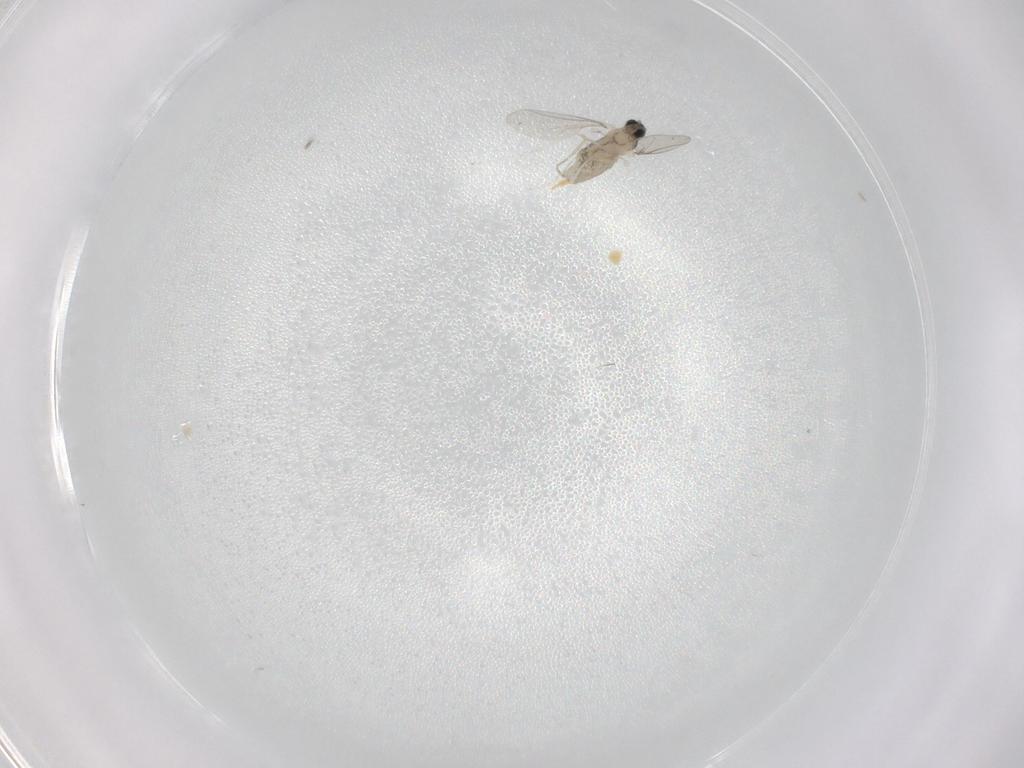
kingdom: Animalia
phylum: Arthropoda
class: Insecta
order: Diptera
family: Cecidomyiidae
